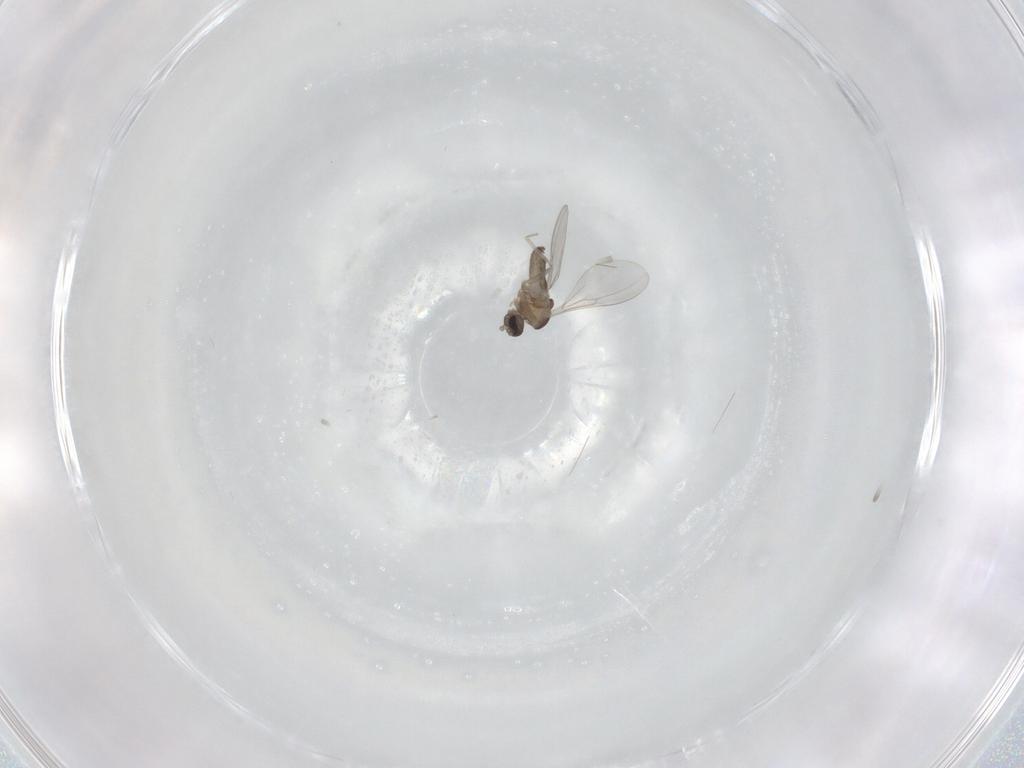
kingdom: Animalia
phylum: Arthropoda
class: Insecta
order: Diptera
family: Cecidomyiidae
